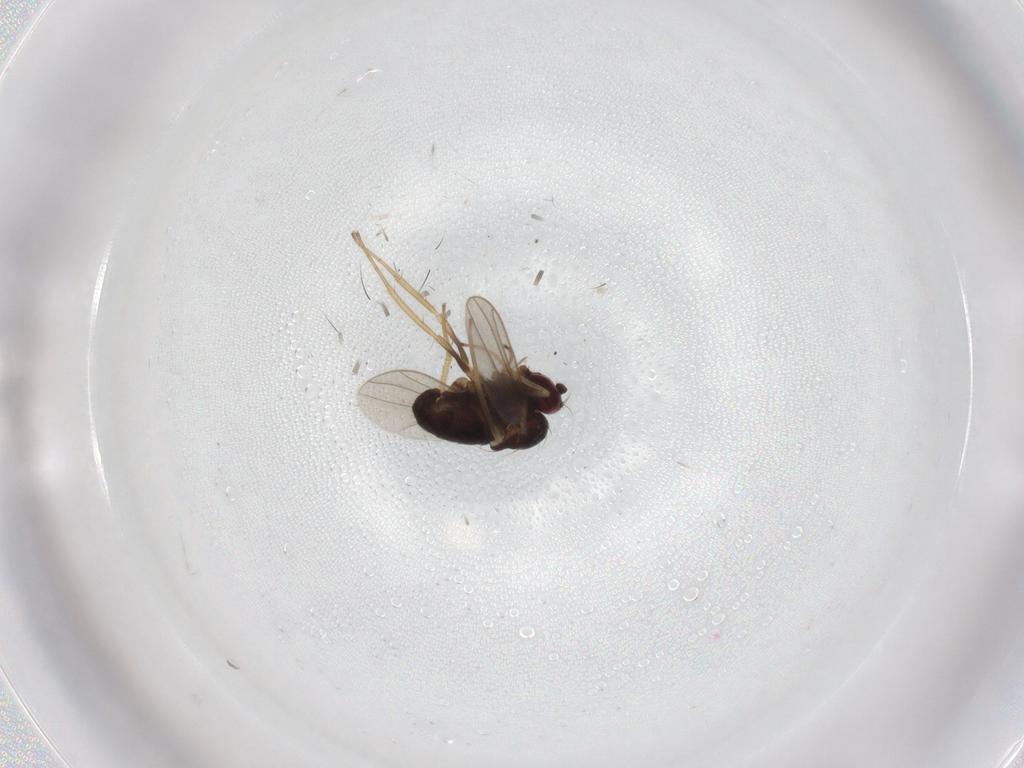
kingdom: Animalia
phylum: Arthropoda
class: Insecta
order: Diptera
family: Dolichopodidae
